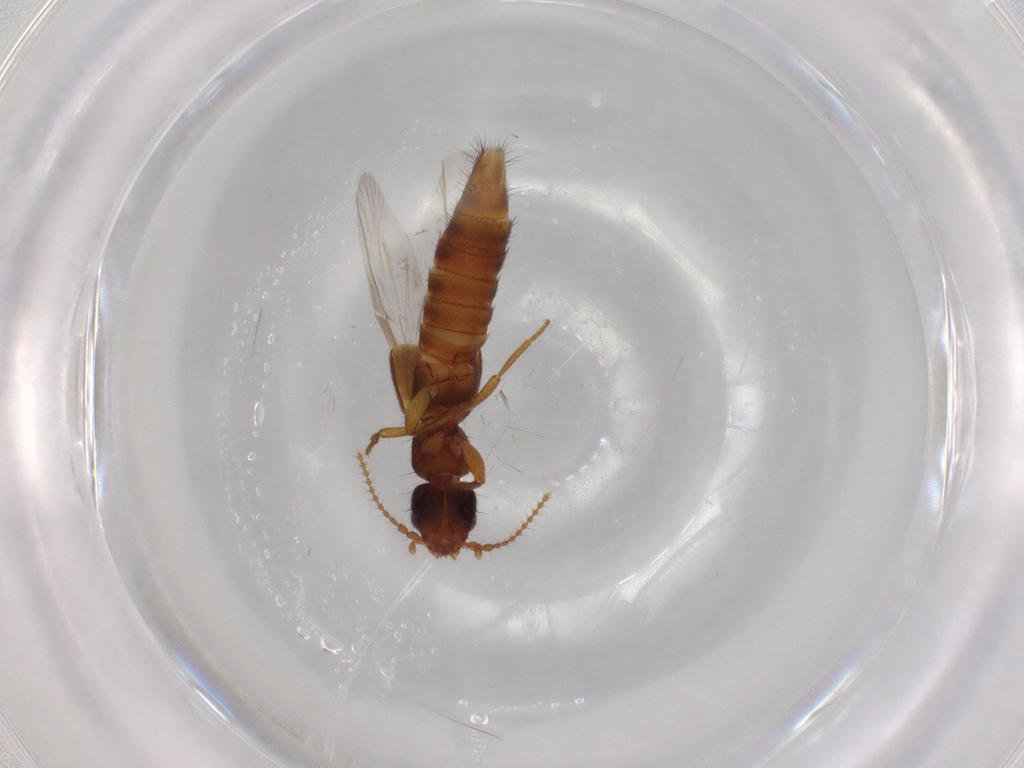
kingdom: Animalia
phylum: Arthropoda
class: Insecta
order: Coleoptera
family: Staphylinidae
